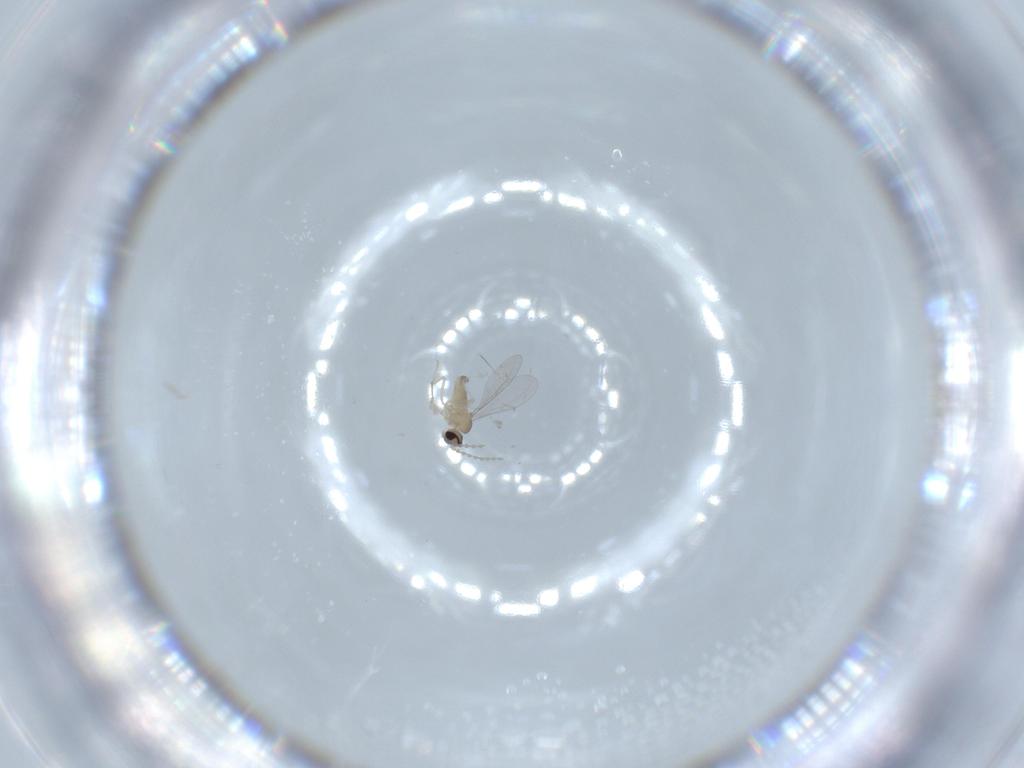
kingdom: Animalia
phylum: Arthropoda
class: Insecta
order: Diptera
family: Cecidomyiidae
